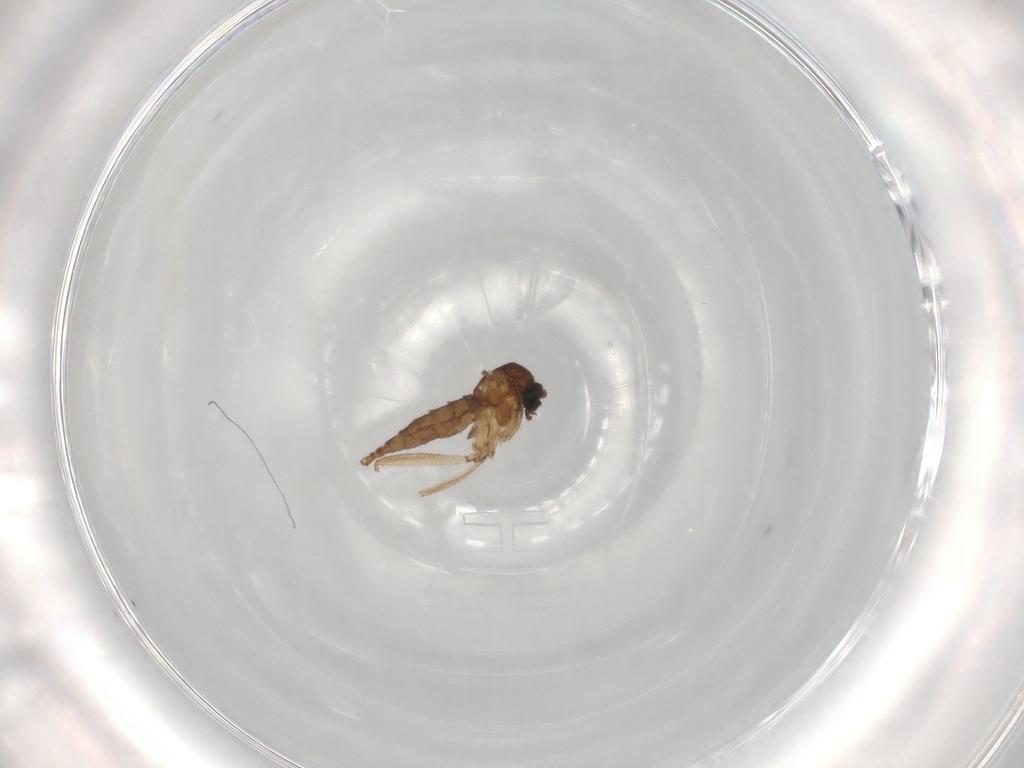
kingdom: Animalia
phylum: Arthropoda
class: Insecta
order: Diptera
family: Sciaridae
